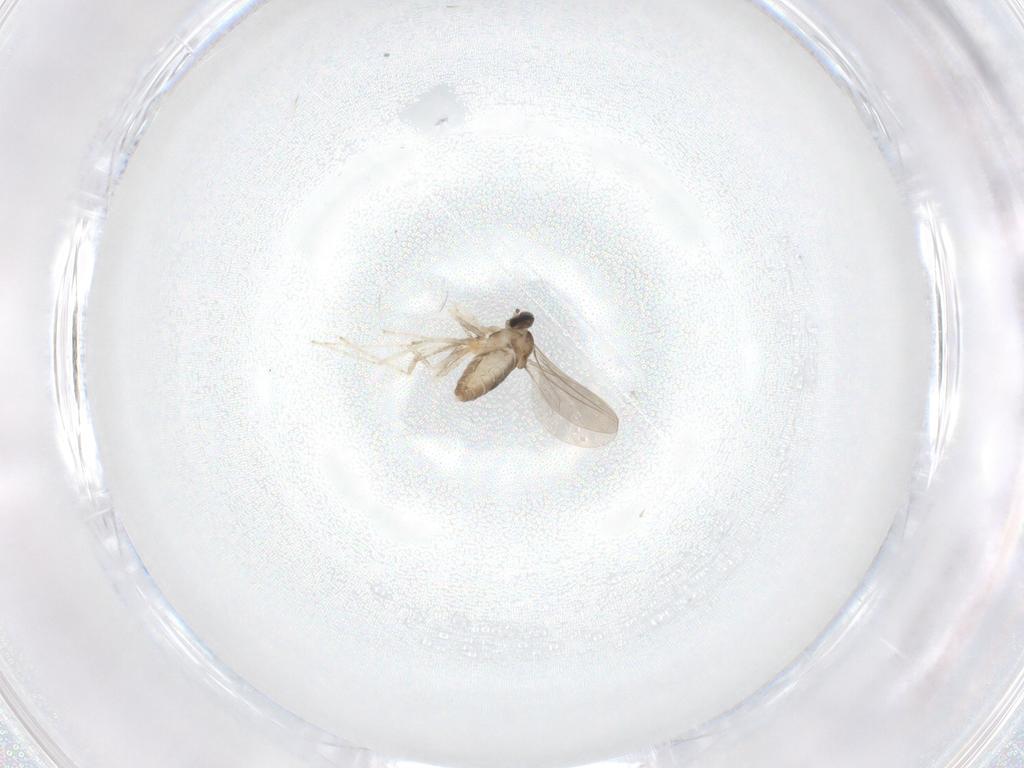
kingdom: Animalia
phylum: Arthropoda
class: Insecta
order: Diptera
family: Cecidomyiidae
